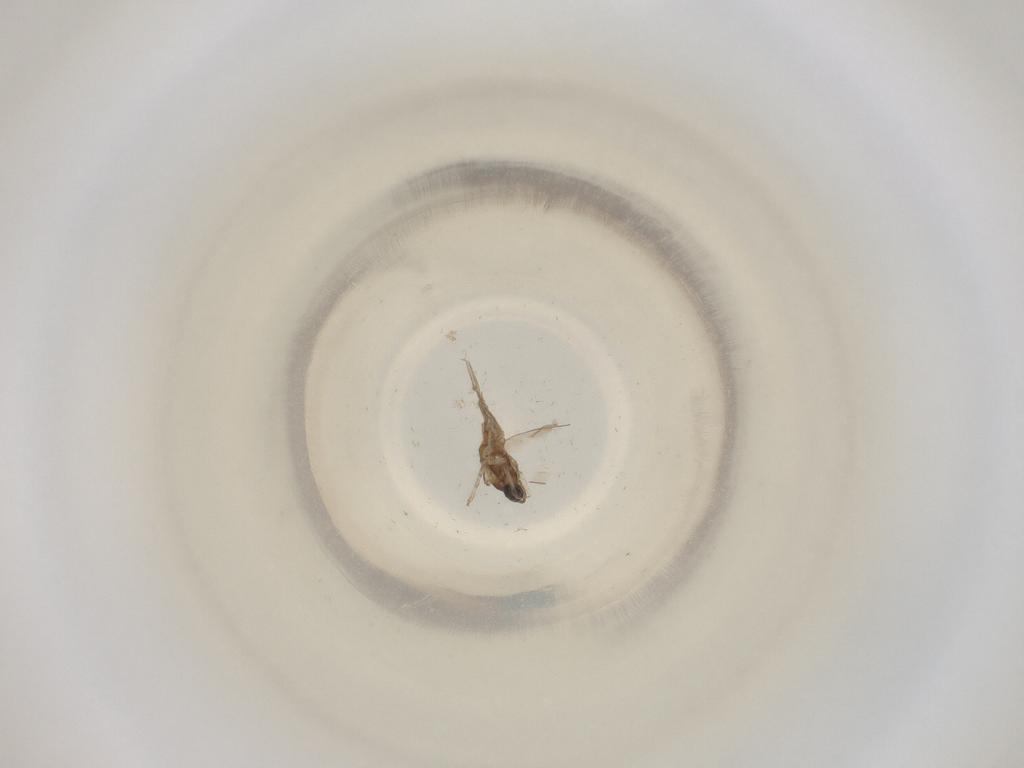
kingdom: Animalia
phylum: Arthropoda
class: Insecta
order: Diptera
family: Cecidomyiidae
